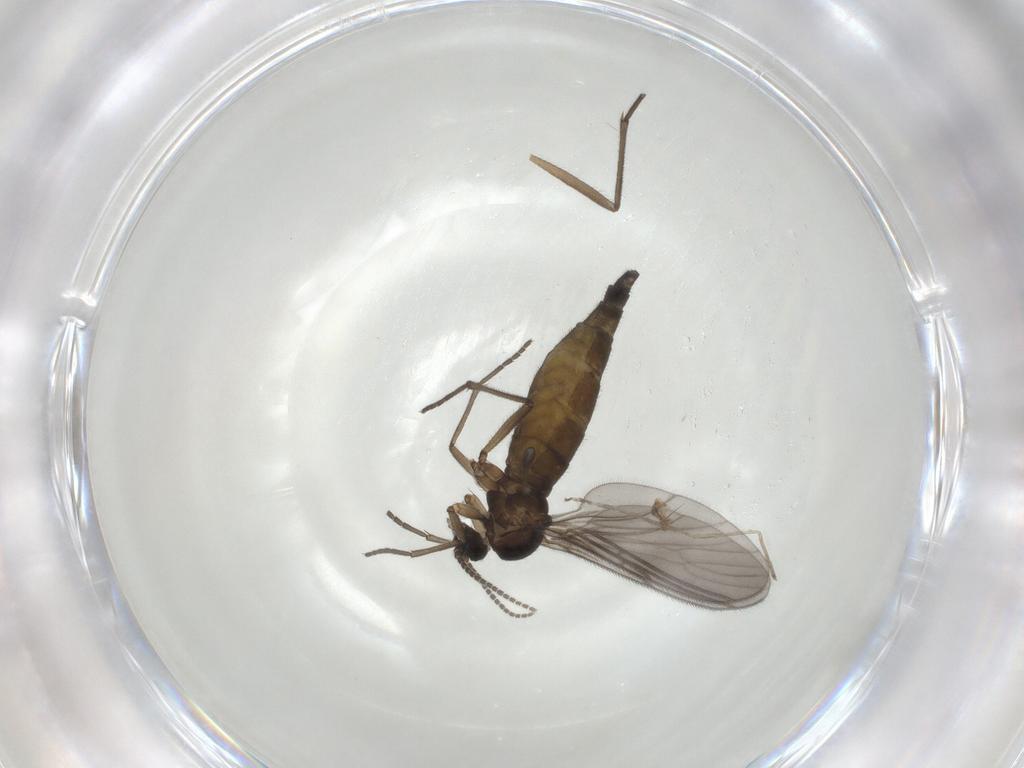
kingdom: Animalia
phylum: Arthropoda
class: Insecta
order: Diptera
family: Sciaridae
